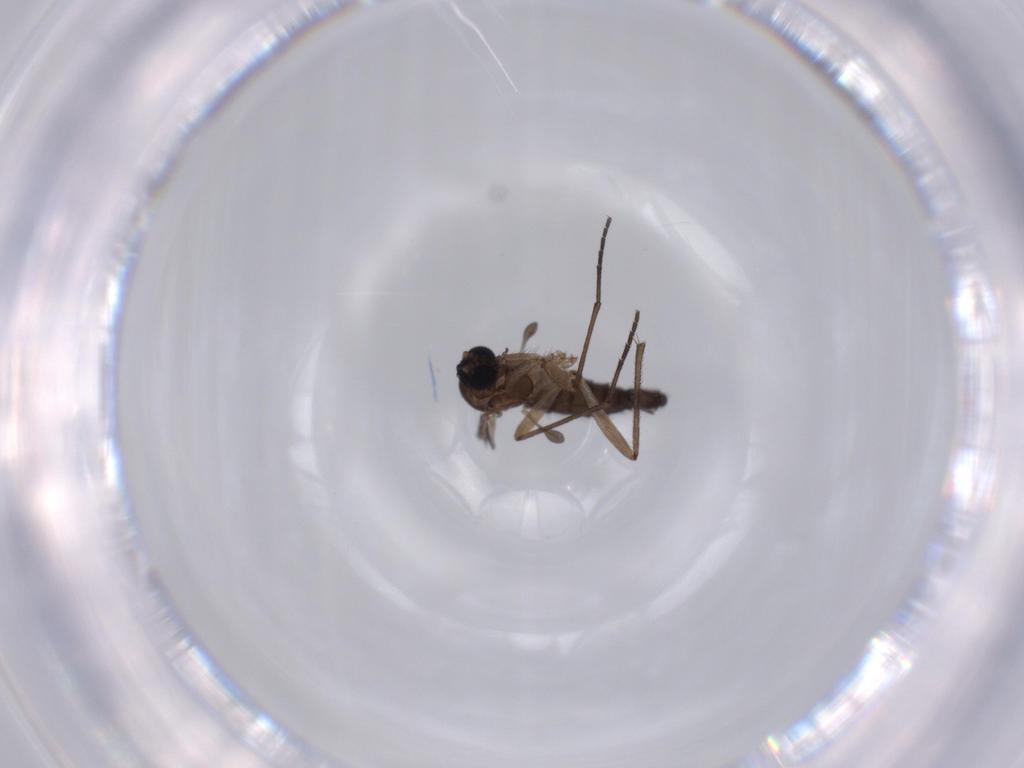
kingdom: Animalia
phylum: Arthropoda
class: Insecta
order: Diptera
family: Sciaridae
